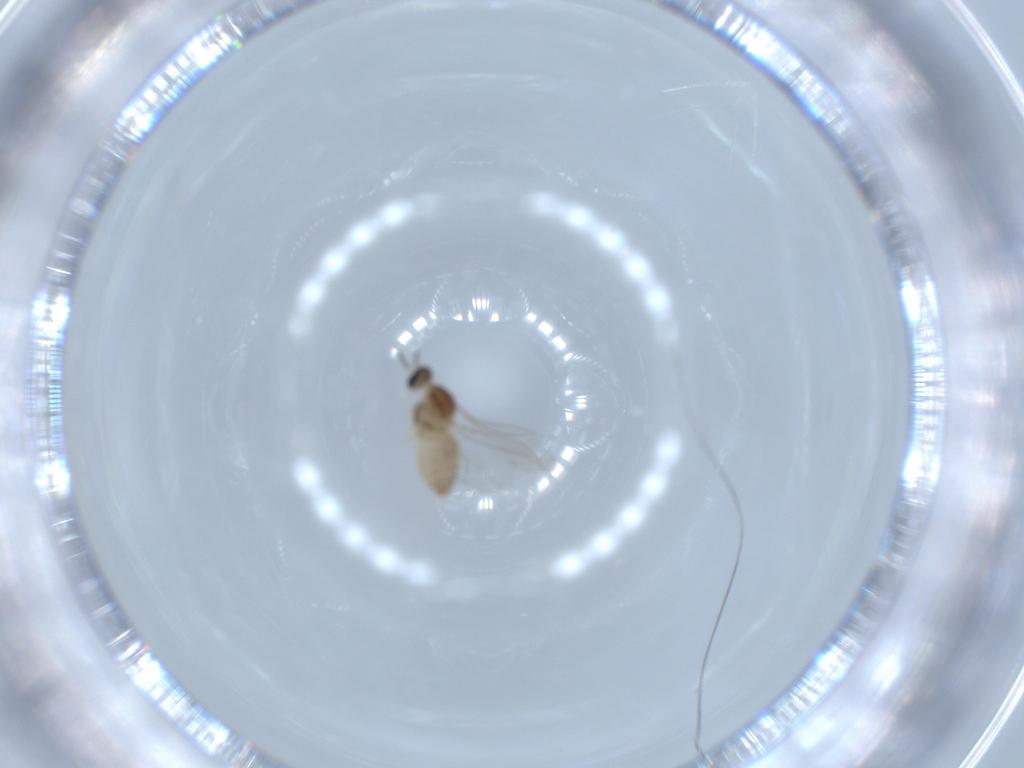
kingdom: Animalia
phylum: Arthropoda
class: Insecta
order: Diptera
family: Cecidomyiidae
